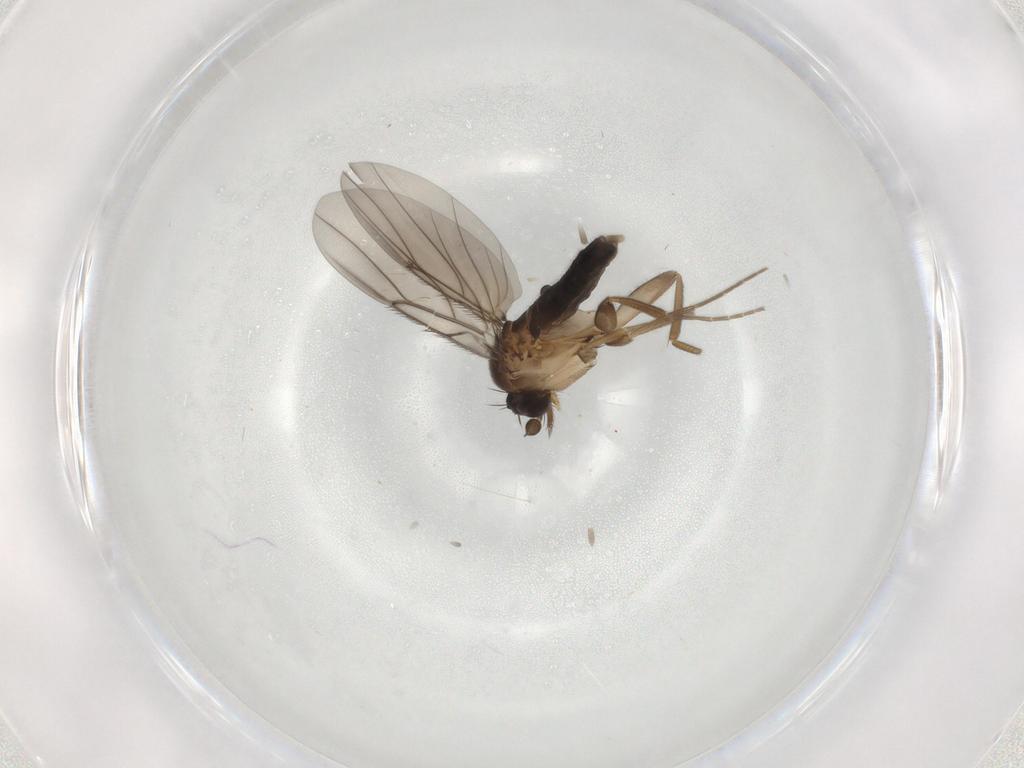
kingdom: Animalia
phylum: Arthropoda
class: Insecta
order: Diptera
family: Phoridae
